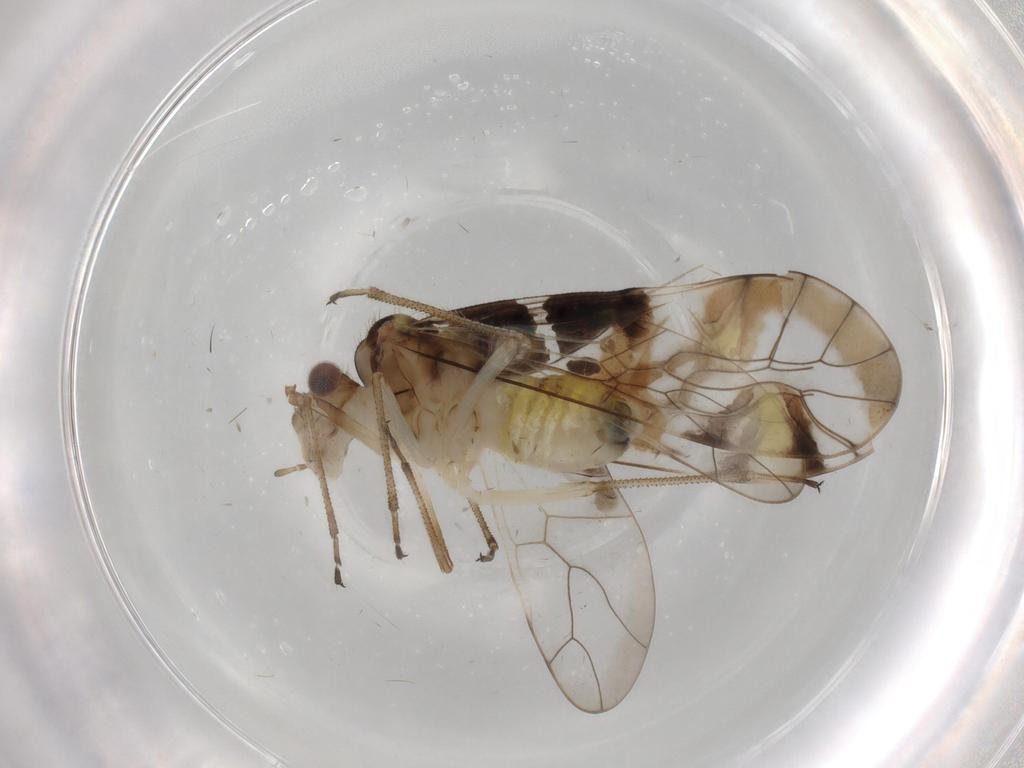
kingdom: Animalia
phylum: Arthropoda
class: Insecta
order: Psocodea
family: Amphipsocidae
